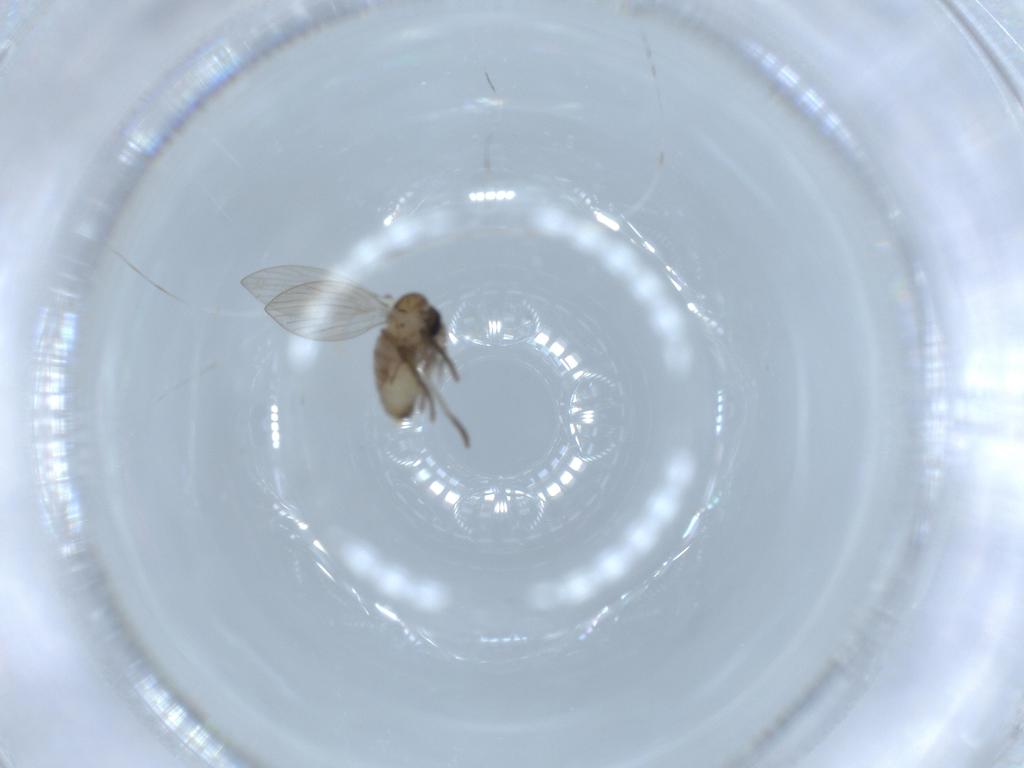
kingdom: Animalia
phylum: Arthropoda
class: Insecta
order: Diptera
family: Psychodidae
